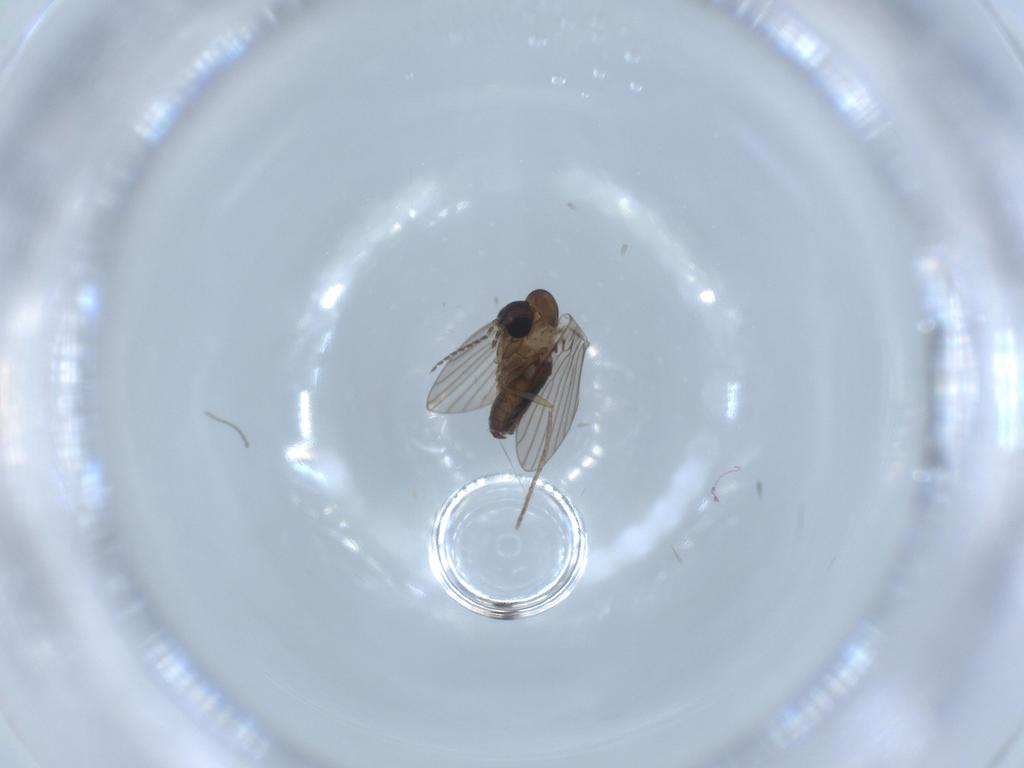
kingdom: Animalia
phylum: Arthropoda
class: Insecta
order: Diptera
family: Psychodidae
